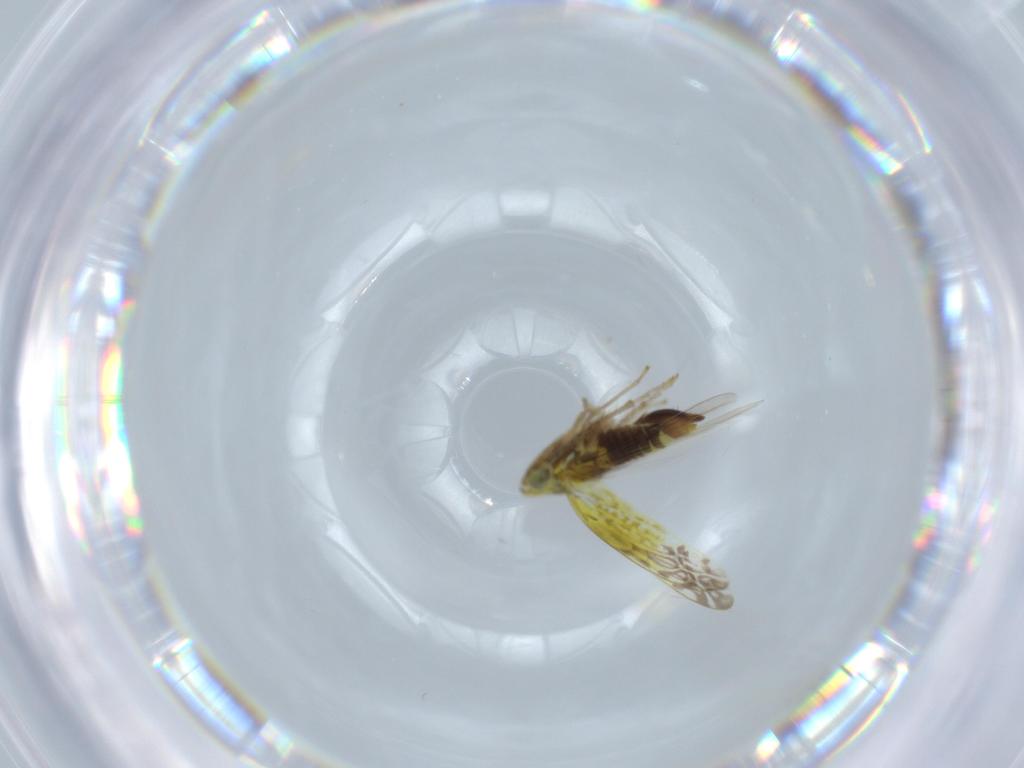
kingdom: Animalia
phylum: Arthropoda
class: Insecta
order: Hemiptera
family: Cicadellidae
